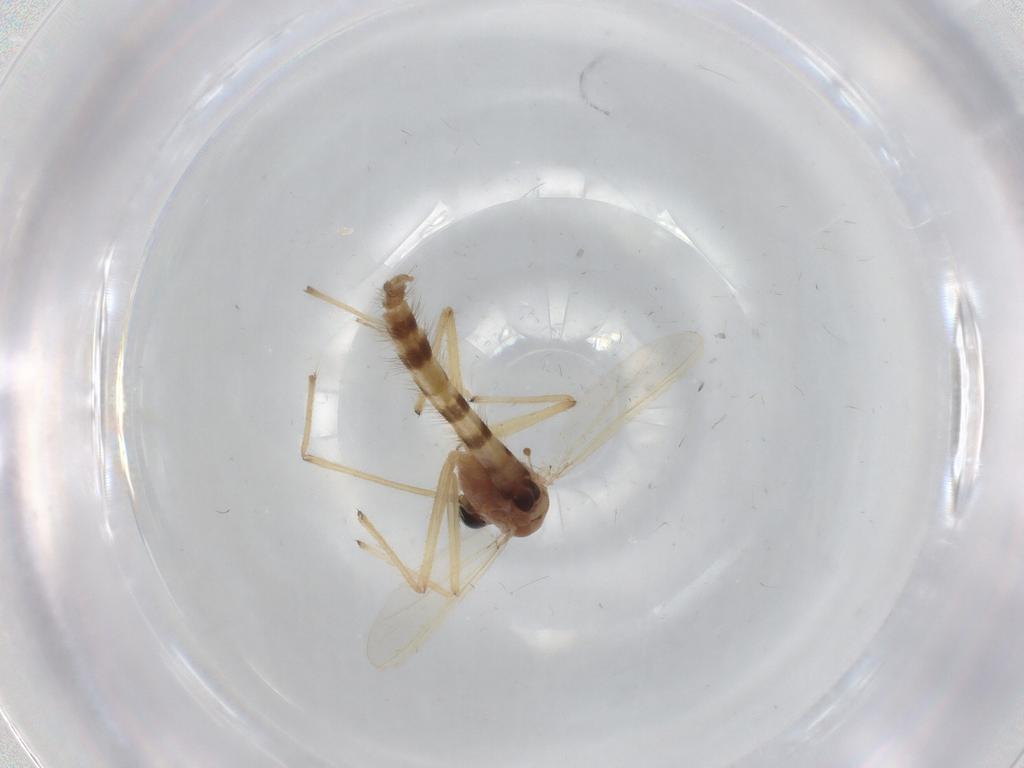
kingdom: Animalia
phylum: Arthropoda
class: Insecta
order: Diptera
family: Chironomidae
